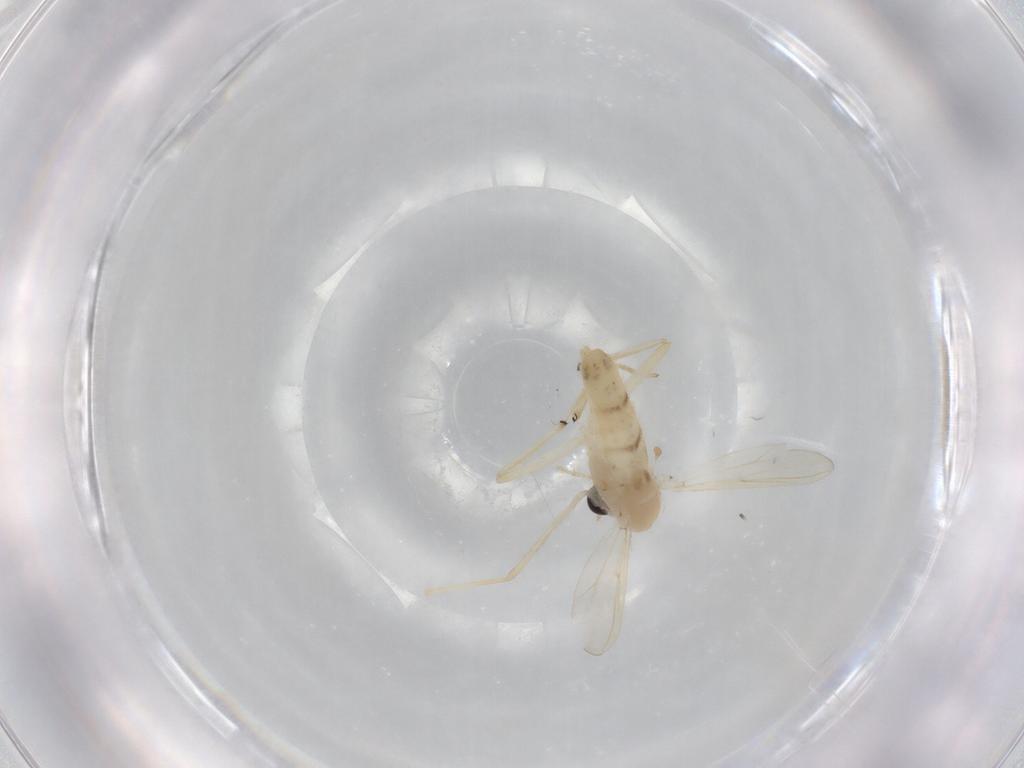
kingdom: Animalia
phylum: Arthropoda
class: Insecta
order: Diptera
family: Chironomidae
